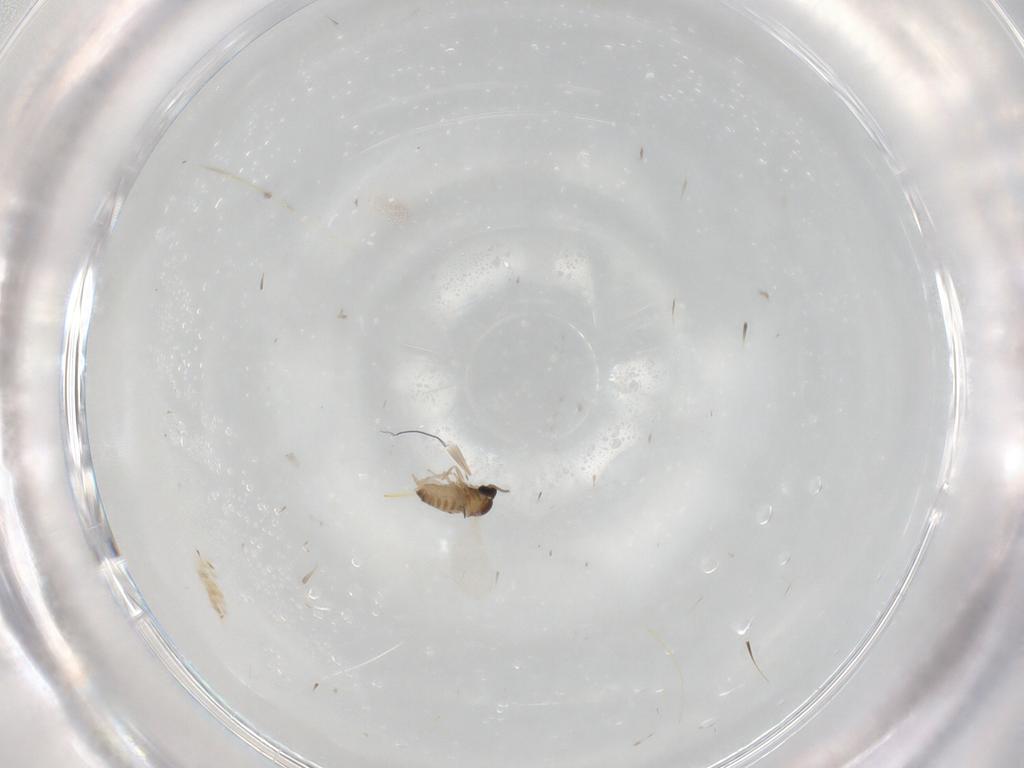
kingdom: Animalia
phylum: Arthropoda
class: Insecta
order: Diptera
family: Cecidomyiidae
